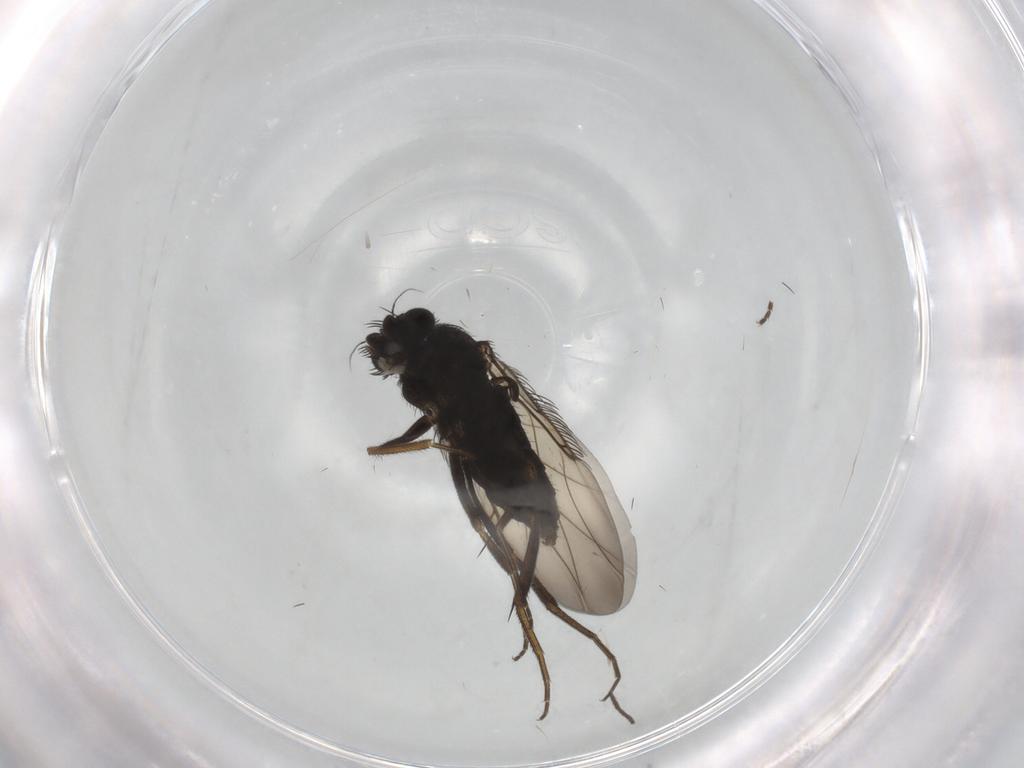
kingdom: Animalia
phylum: Arthropoda
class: Insecta
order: Diptera
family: Phoridae
